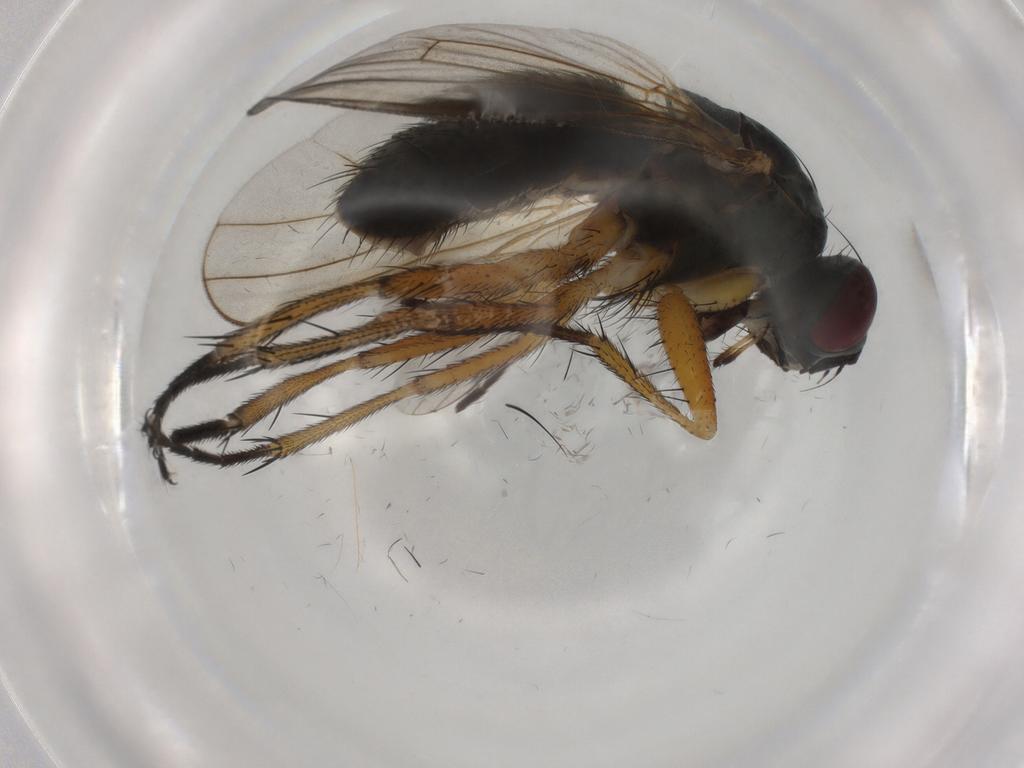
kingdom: Animalia
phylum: Arthropoda
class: Insecta
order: Diptera
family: Muscidae
